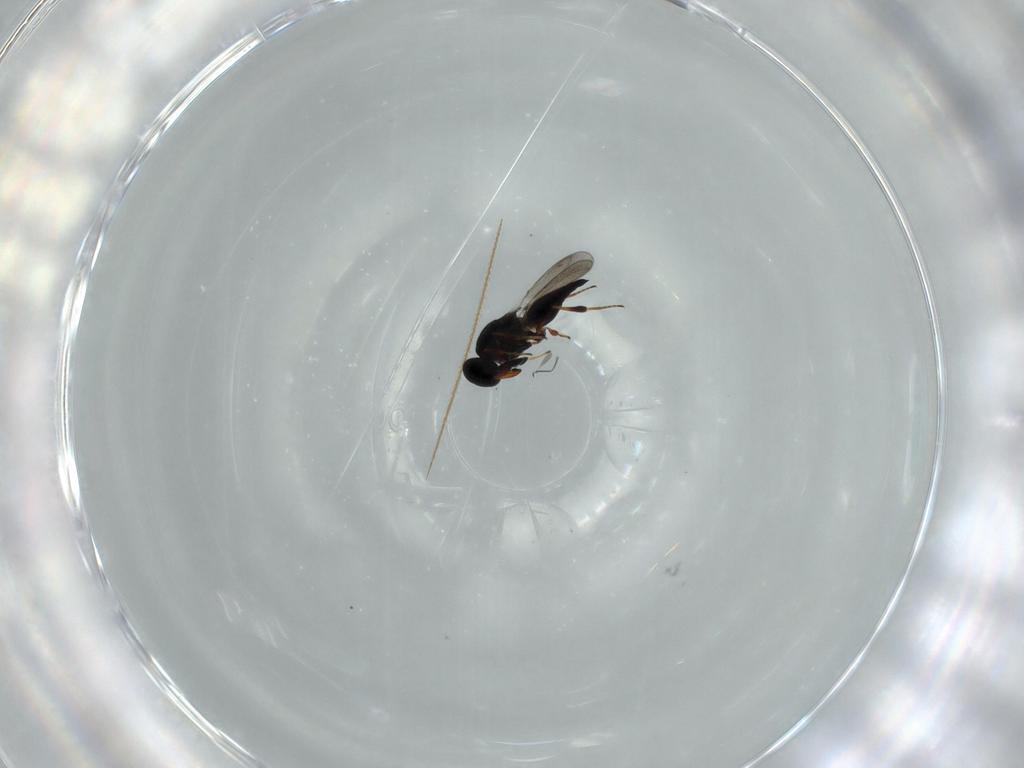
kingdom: Animalia
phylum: Arthropoda
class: Insecta
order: Hymenoptera
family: Platygastridae
